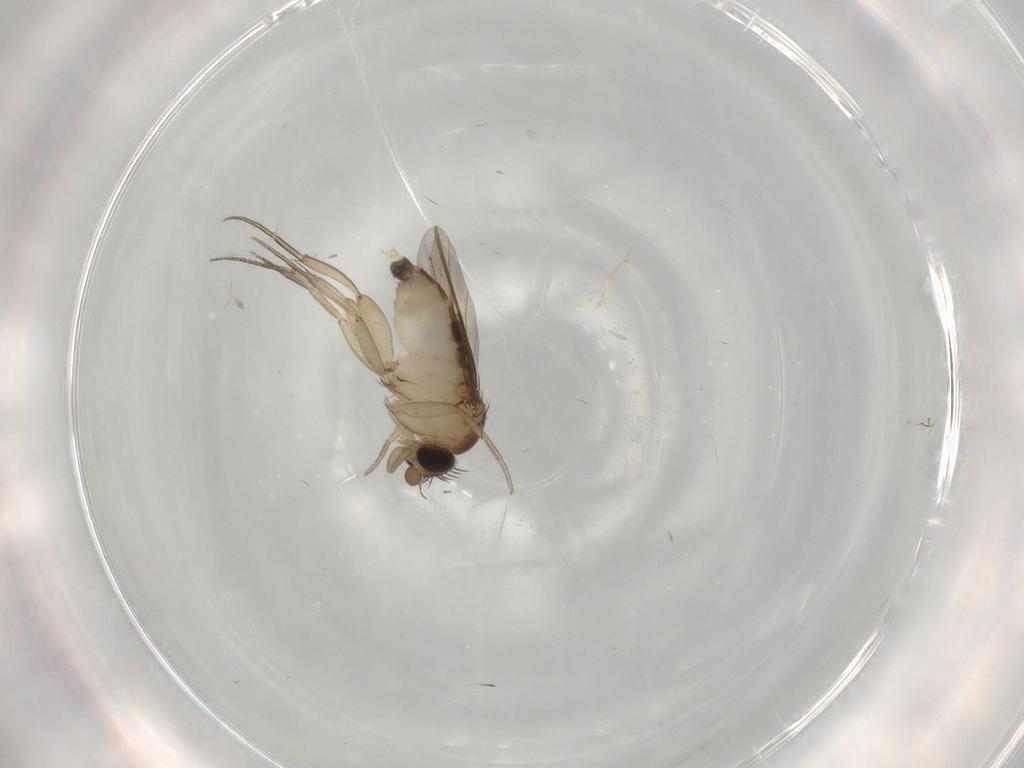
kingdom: Animalia
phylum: Arthropoda
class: Insecta
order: Diptera
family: Phoridae
